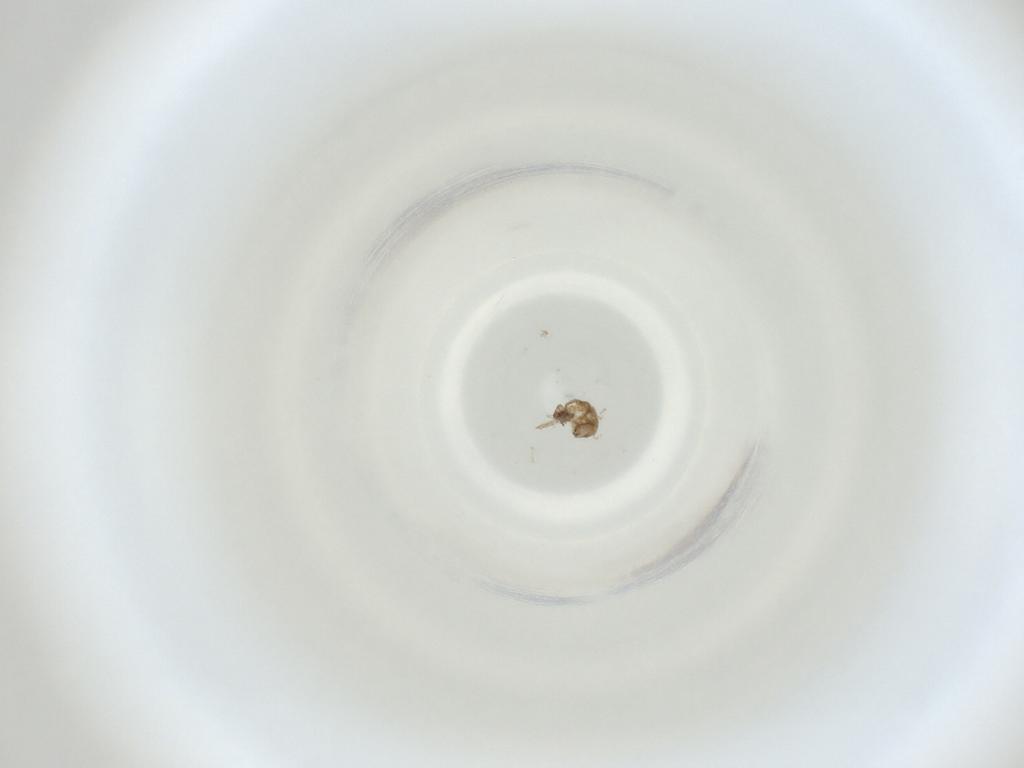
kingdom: Animalia
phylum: Arthropoda
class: Insecta
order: Diptera
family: Cecidomyiidae
